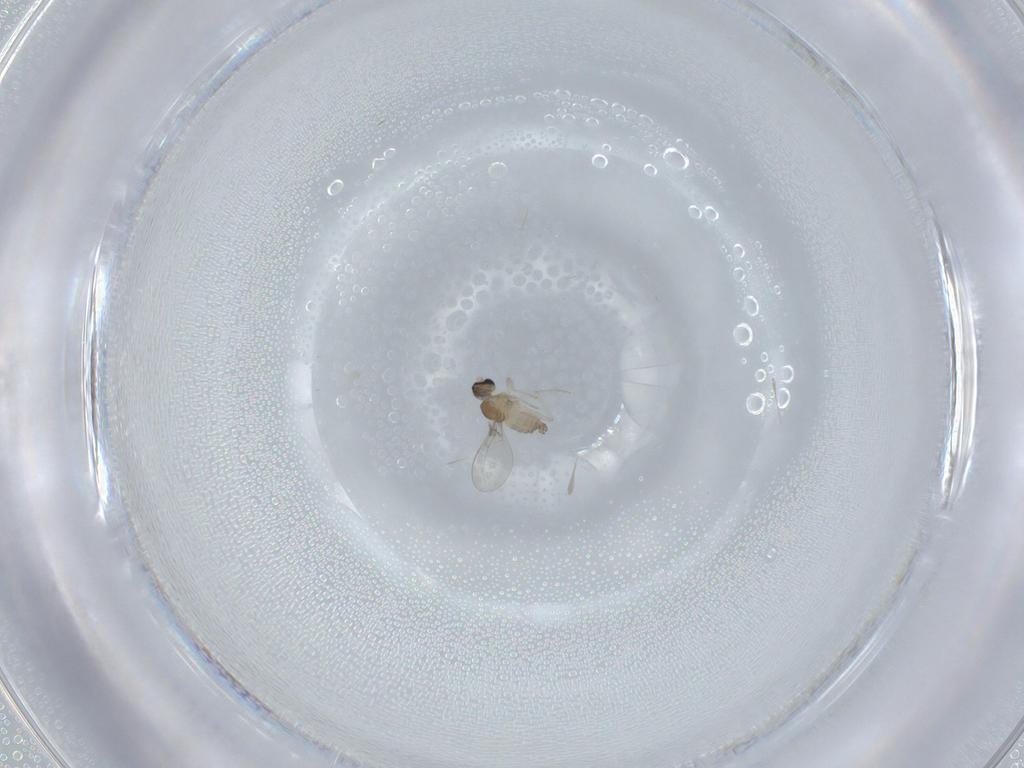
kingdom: Animalia
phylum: Arthropoda
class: Insecta
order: Diptera
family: Cecidomyiidae
